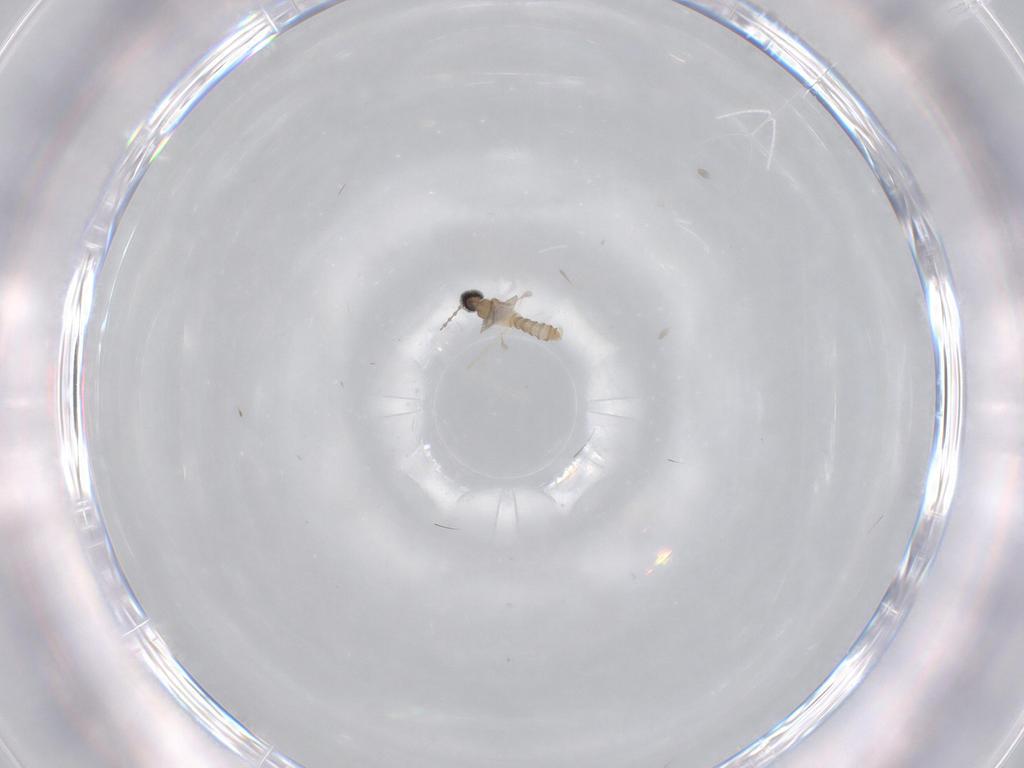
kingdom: Animalia
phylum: Arthropoda
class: Insecta
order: Diptera
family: Cecidomyiidae
